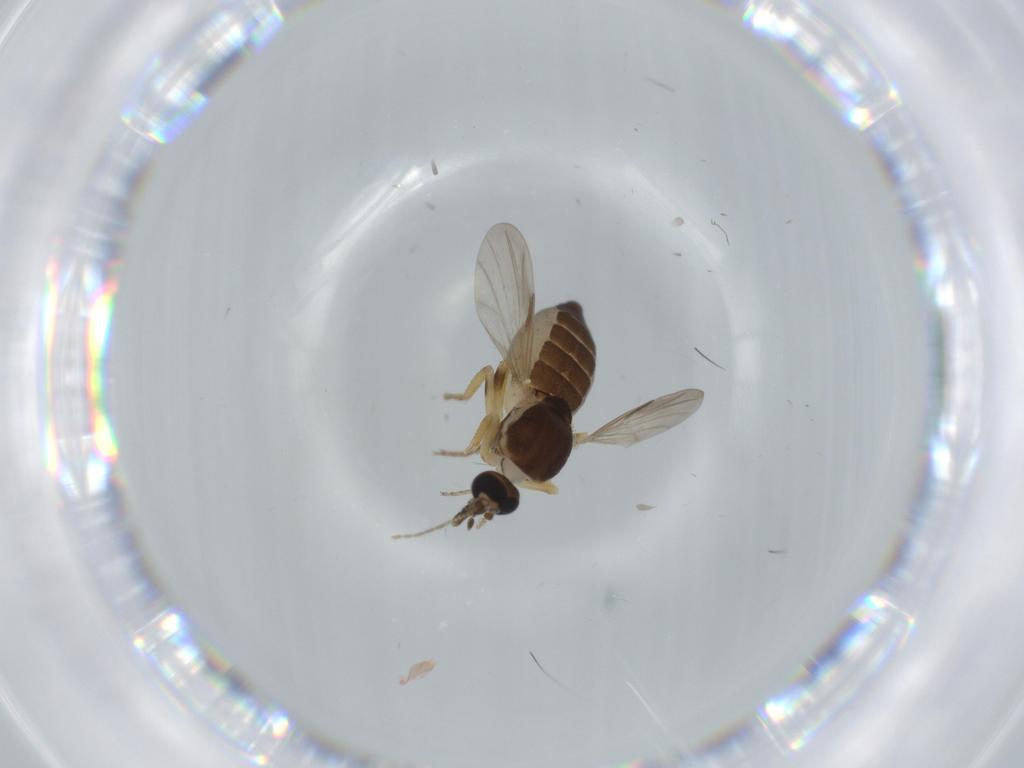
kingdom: Animalia
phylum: Arthropoda
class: Insecta
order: Diptera
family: Ceratopogonidae
